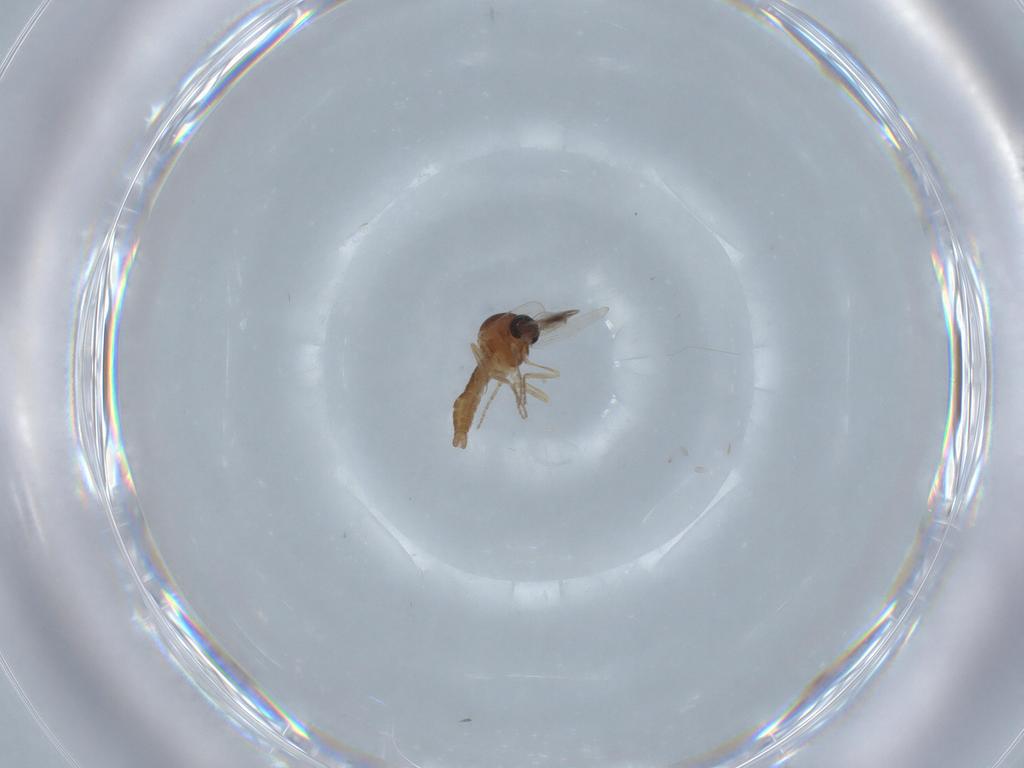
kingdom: Animalia
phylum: Arthropoda
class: Insecta
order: Diptera
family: Ceratopogonidae
